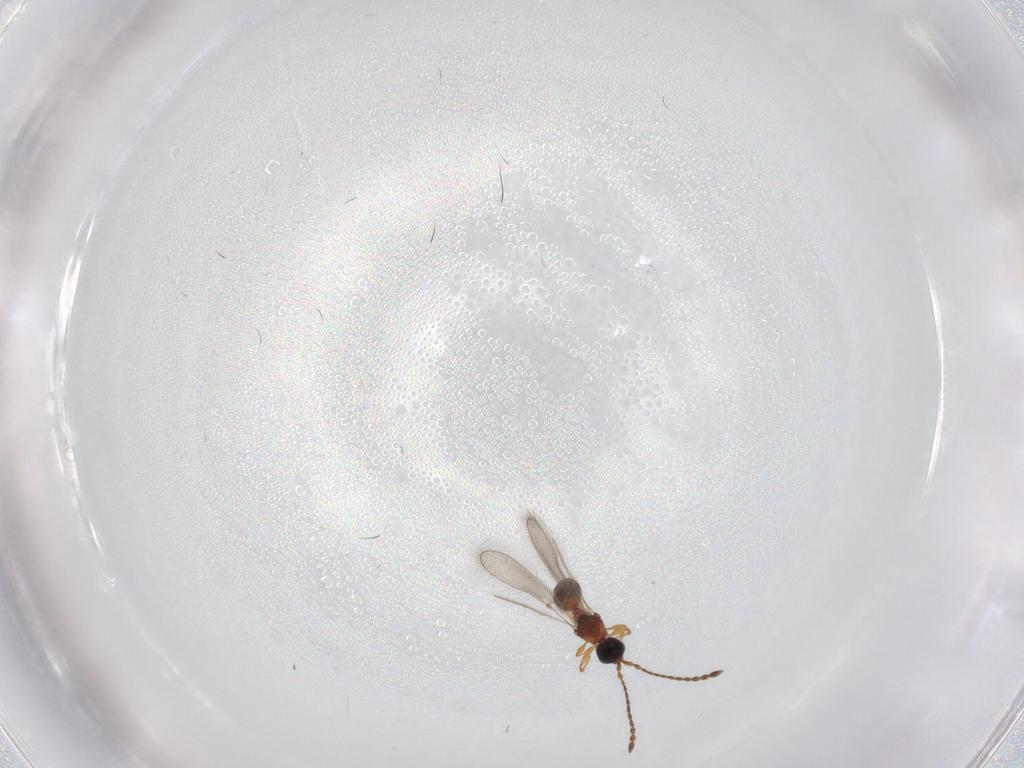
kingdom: Animalia
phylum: Arthropoda
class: Insecta
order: Hymenoptera
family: Diapriidae
